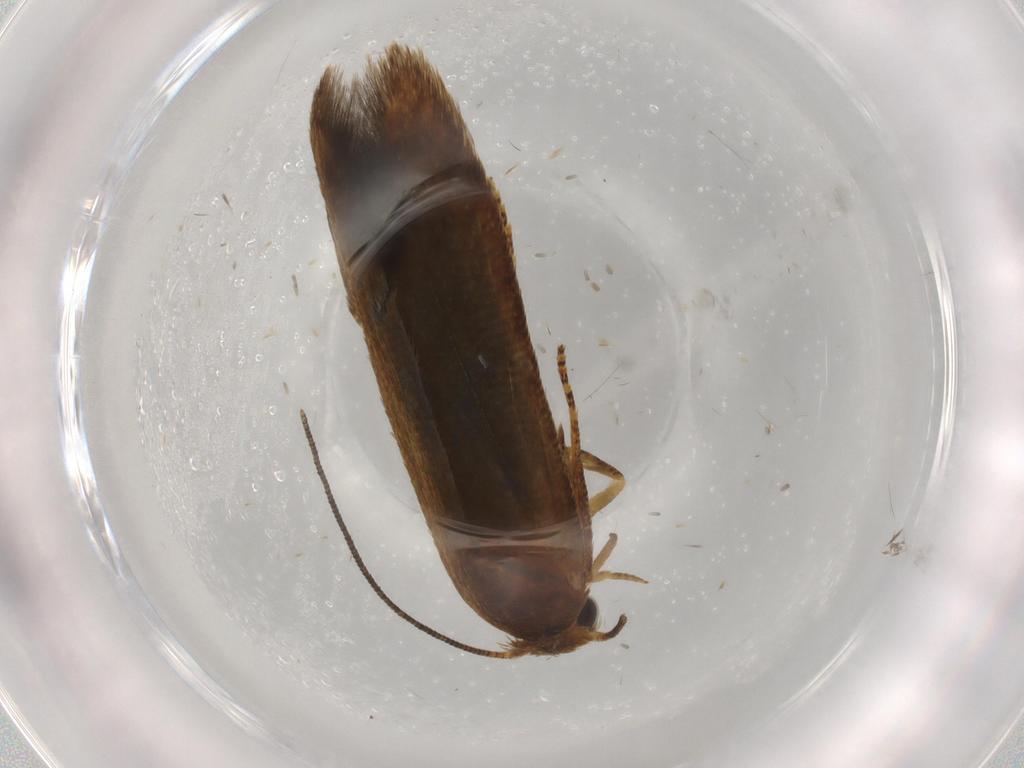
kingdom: Animalia
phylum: Arthropoda
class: Insecta
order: Lepidoptera
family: Blastobasidae
